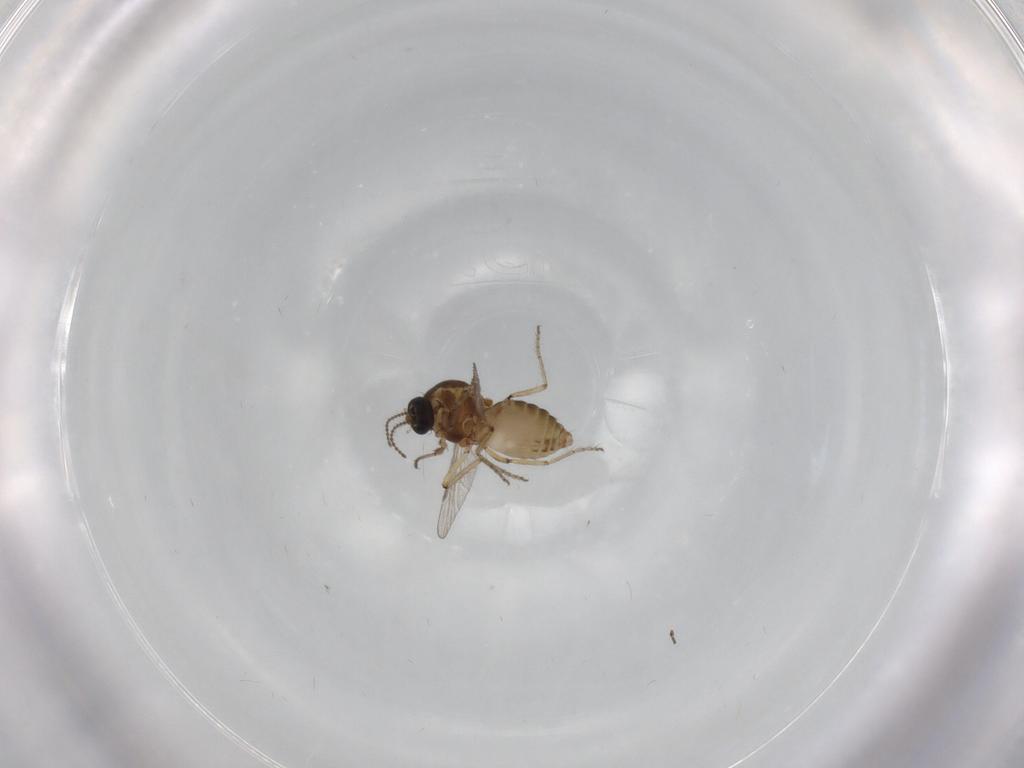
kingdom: Animalia
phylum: Arthropoda
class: Insecta
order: Diptera
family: Ceratopogonidae
